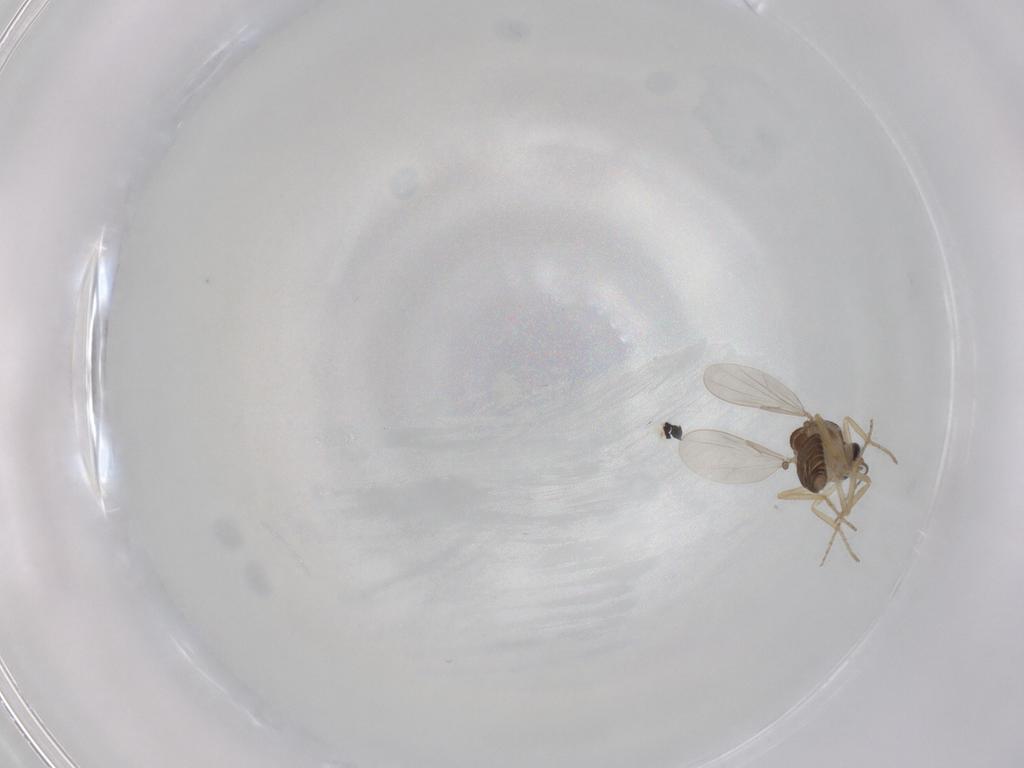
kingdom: Animalia
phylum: Arthropoda
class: Insecta
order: Diptera
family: Ceratopogonidae
